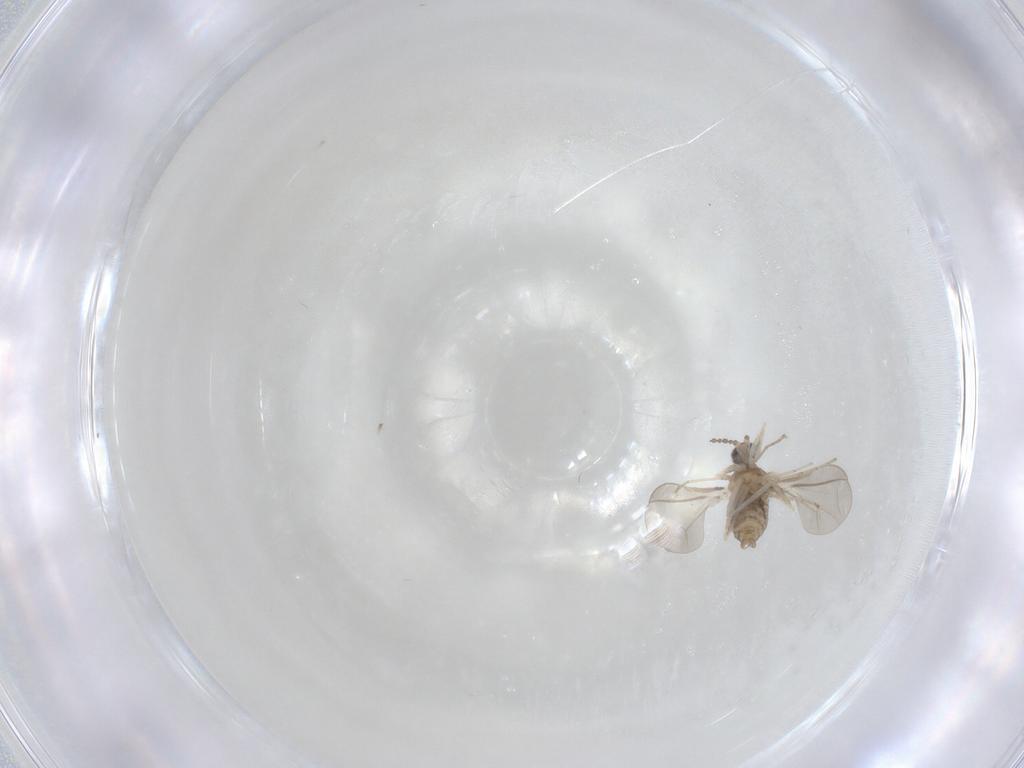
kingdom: Animalia
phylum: Arthropoda
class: Insecta
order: Diptera
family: Cecidomyiidae
